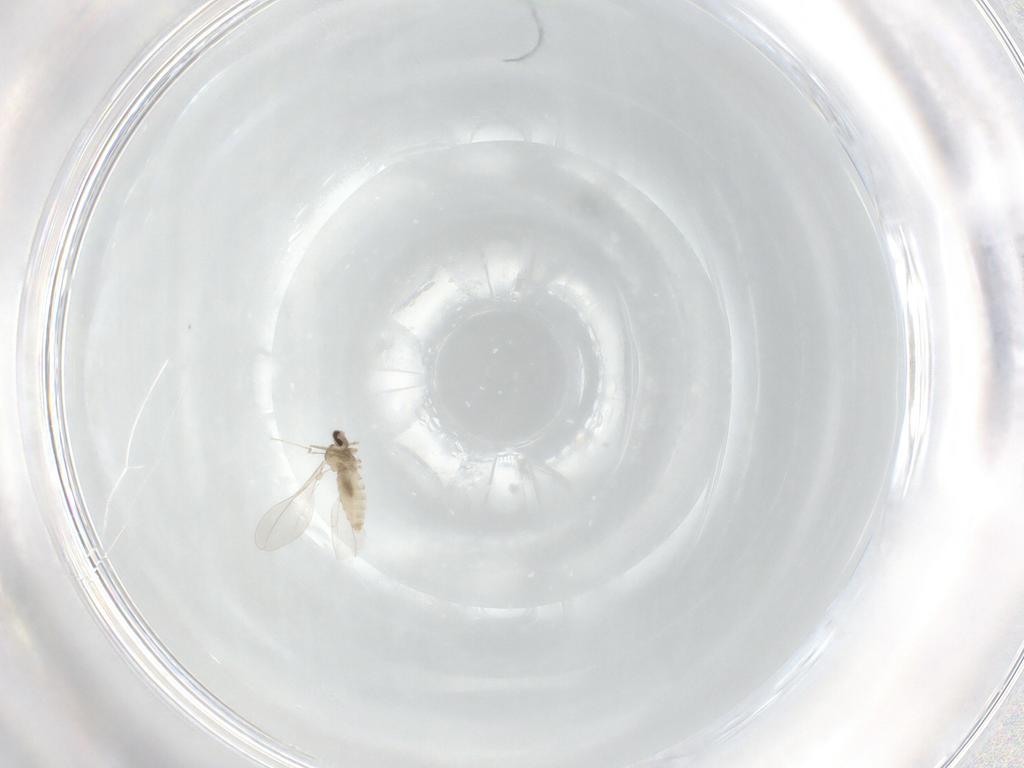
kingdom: Animalia
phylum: Arthropoda
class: Insecta
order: Diptera
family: Cecidomyiidae
